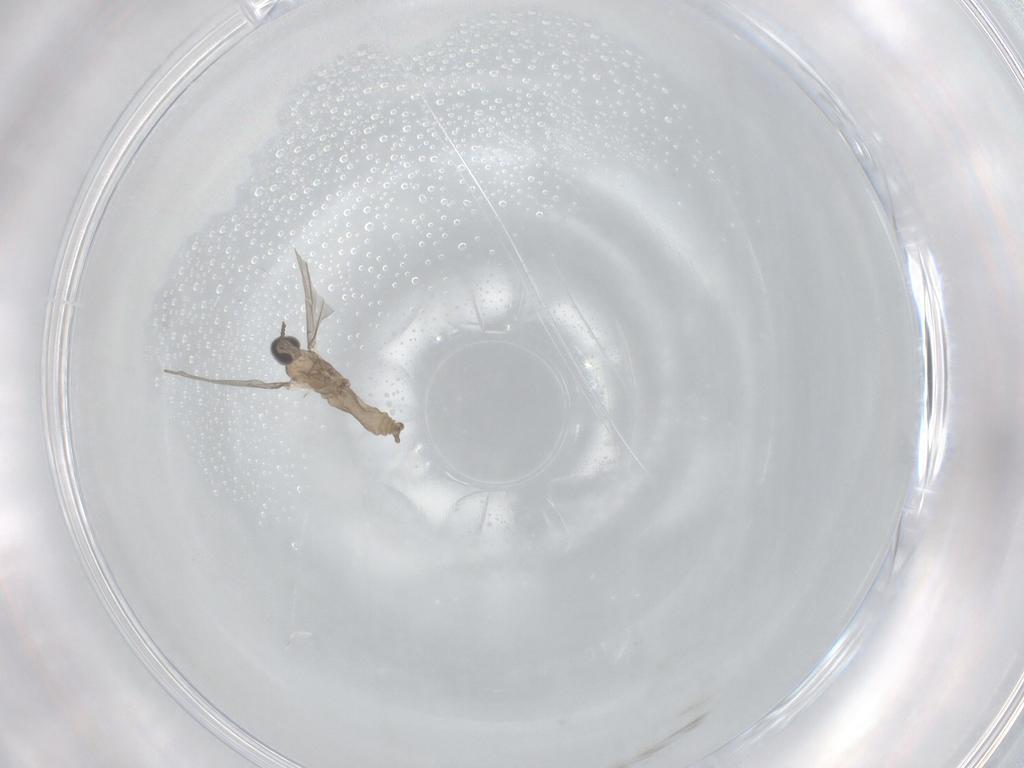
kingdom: Animalia
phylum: Arthropoda
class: Insecta
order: Diptera
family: Cecidomyiidae
